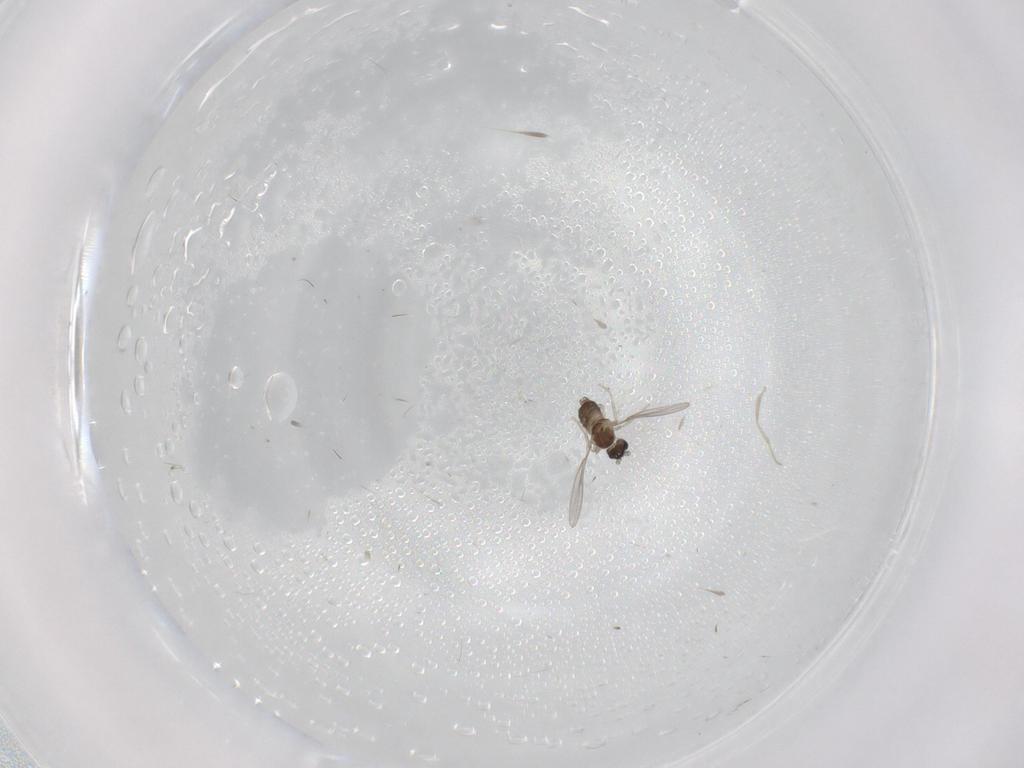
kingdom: Animalia
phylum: Arthropoda
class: Insecta
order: Diptera
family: Cecidomyiidae
